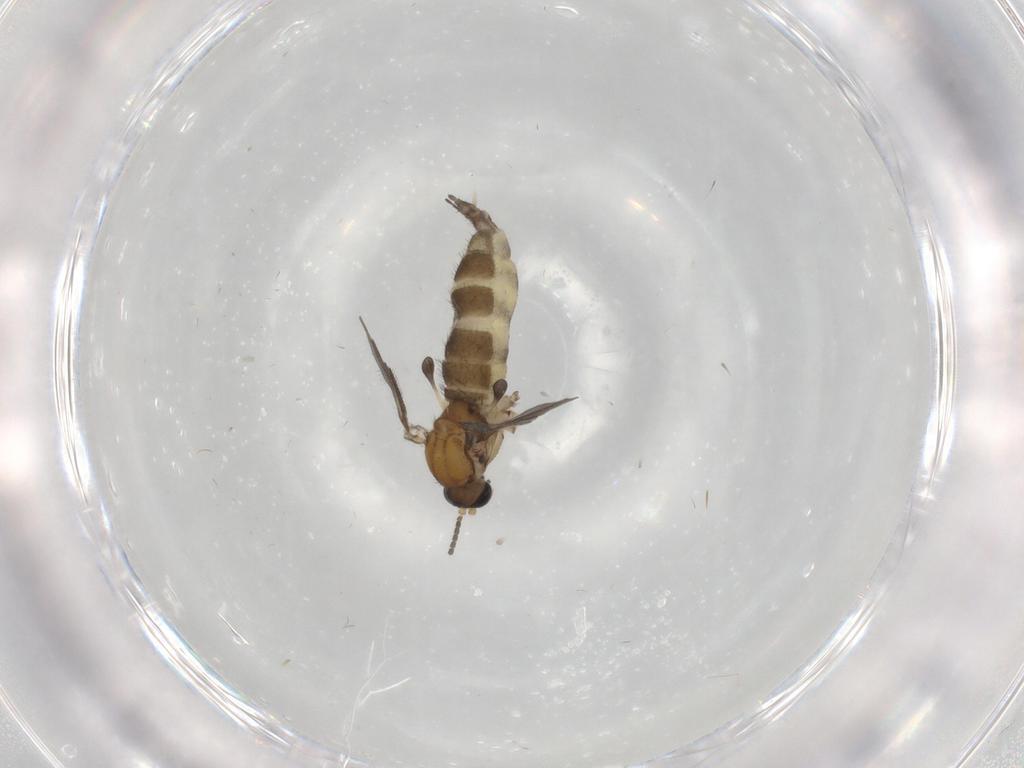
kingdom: Animalia
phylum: Arthropoda
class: Insecta
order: Diptera
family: Sciaridae
